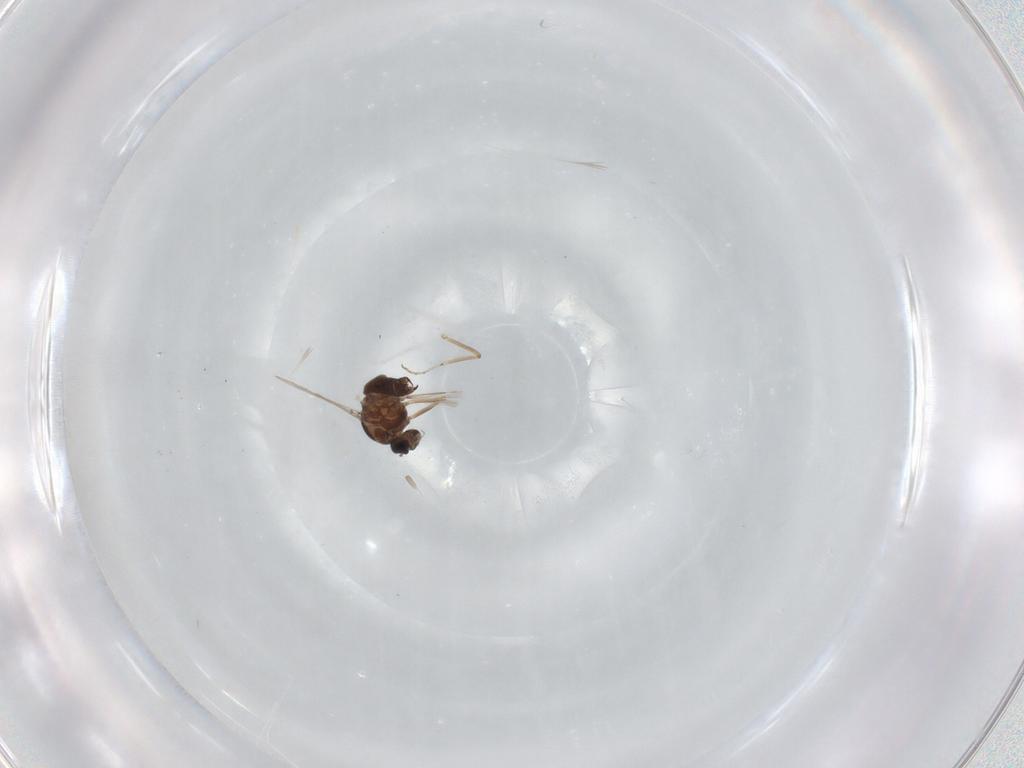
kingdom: Animalia
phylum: Arthropoda
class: Insecta
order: Diptera
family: Ceratopogonidae
